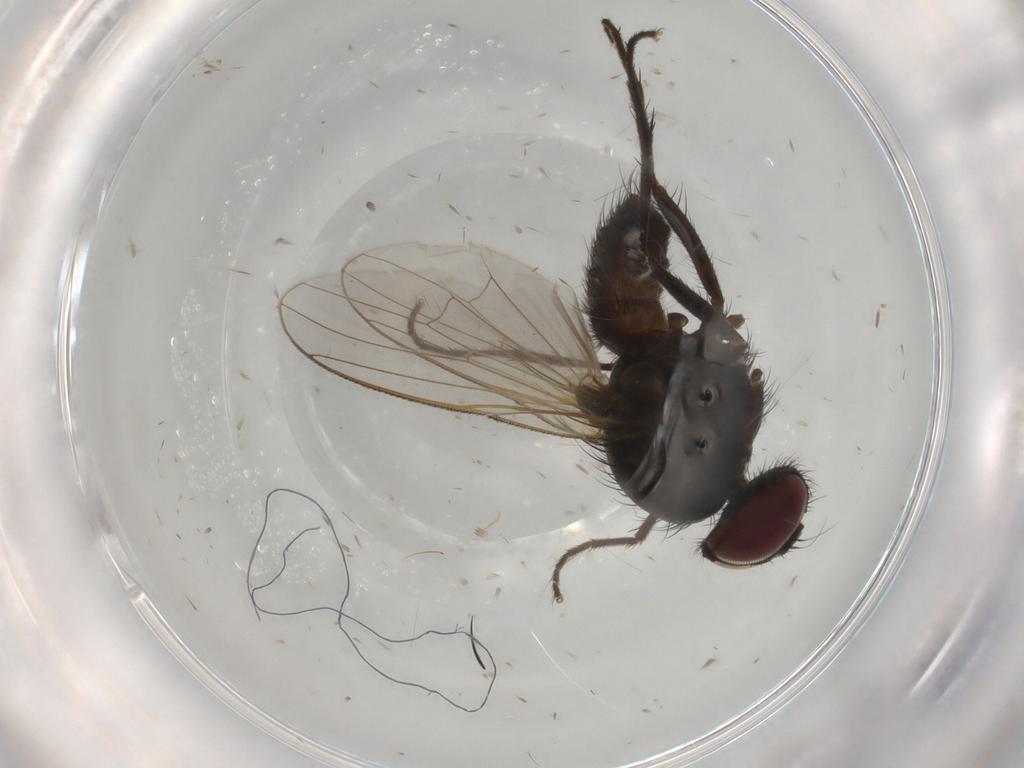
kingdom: Animalia
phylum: Arthropoda
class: Insecta
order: Diptera
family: Muscidae
